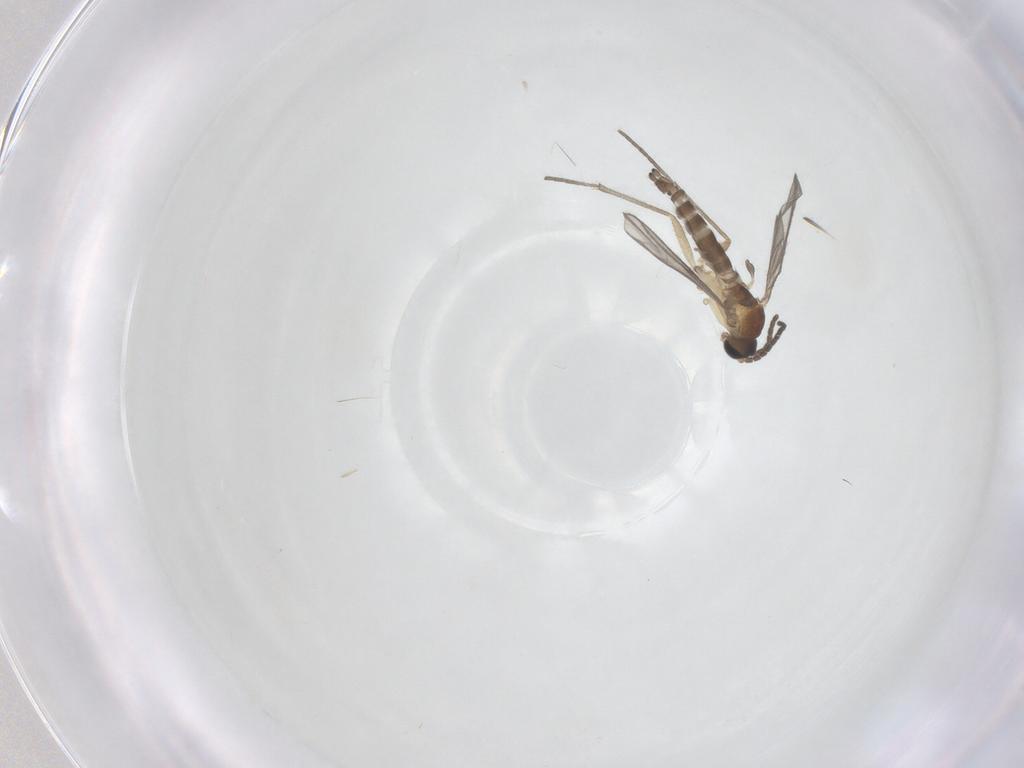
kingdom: Animalia
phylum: Arthropoda
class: Insecta
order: Diptera
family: Sciaridae
